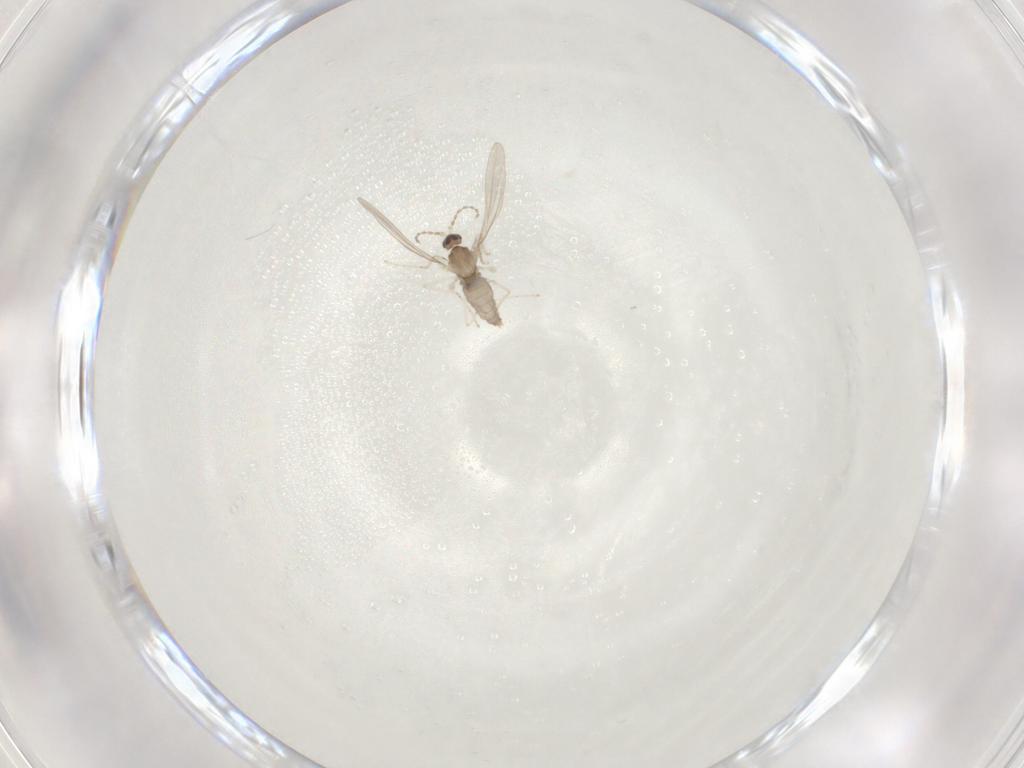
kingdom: Animalia
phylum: Arthropoda
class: Insecta
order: Diptera
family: Cecidomyiidae
